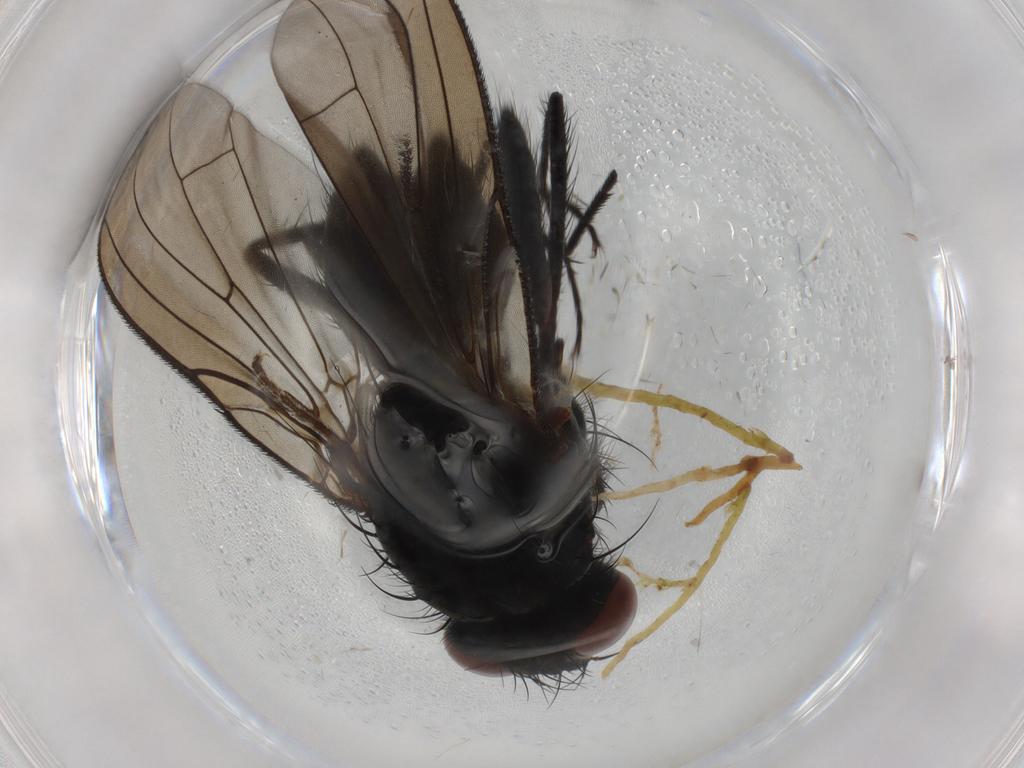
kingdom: Animalia
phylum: Arthropoda
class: Insecta
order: Diptera
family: Anthomyiidae
